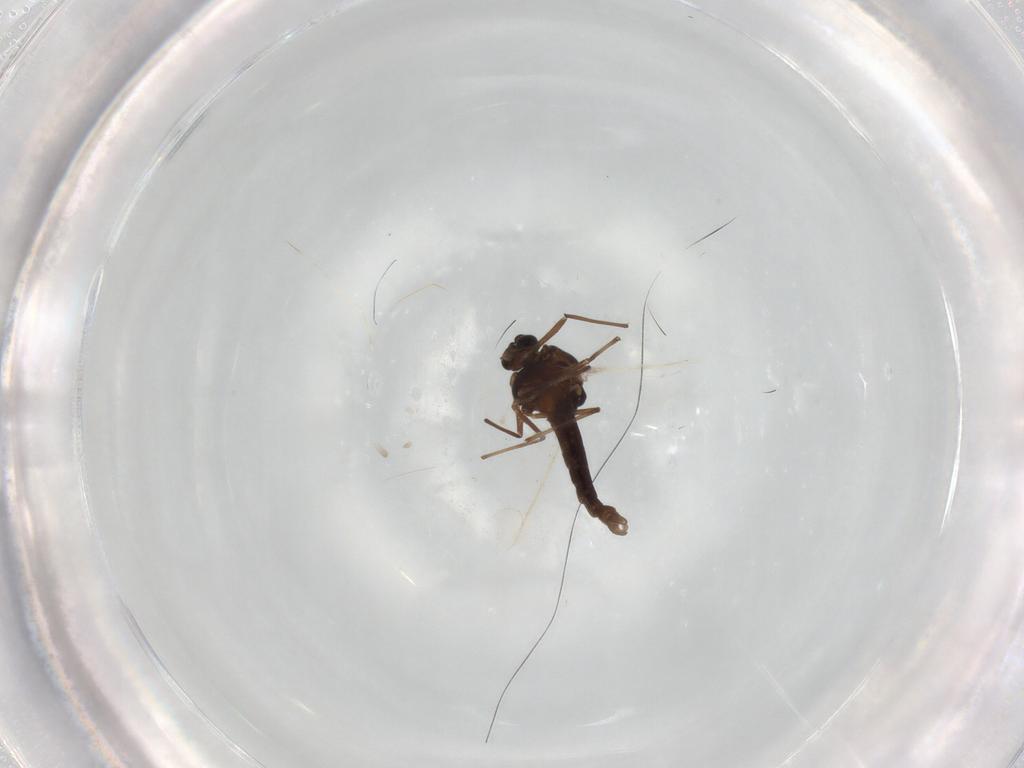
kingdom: Animalia
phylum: Arthropoda
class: Insecta
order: Diptera
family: Chironomidae
